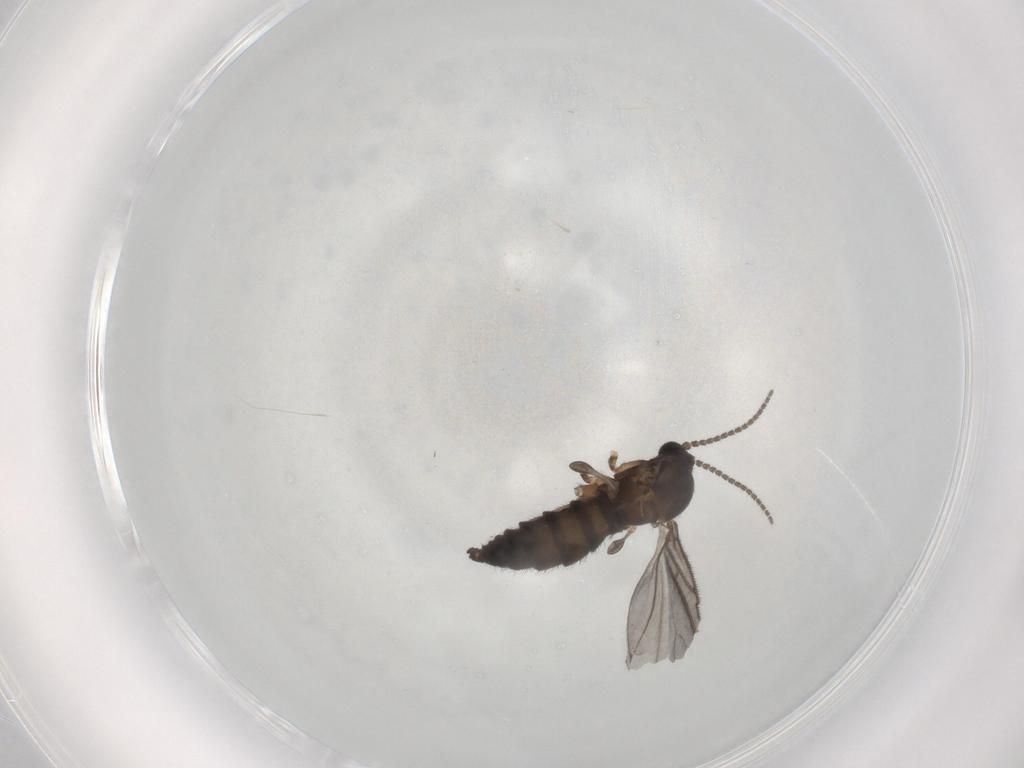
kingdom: Animalia
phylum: Arthropoda
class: Insecta
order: Diptera
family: Sciaridae
